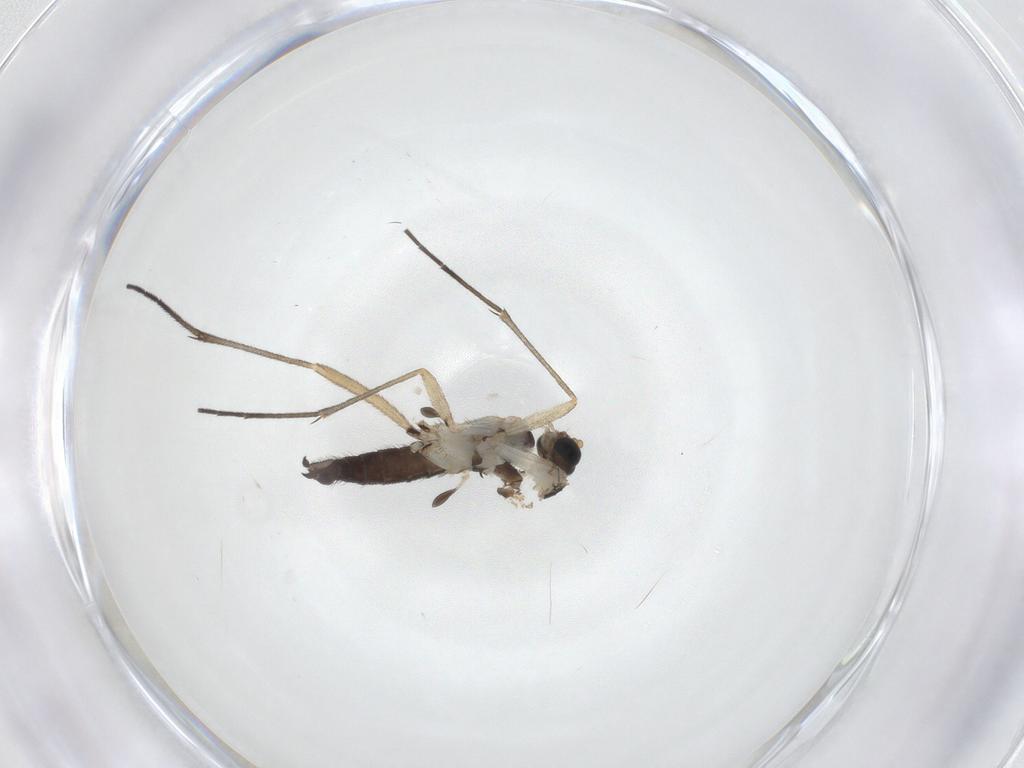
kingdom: Animalia
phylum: Arthropoda
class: Insecta
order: Diptera
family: Sciaridae
